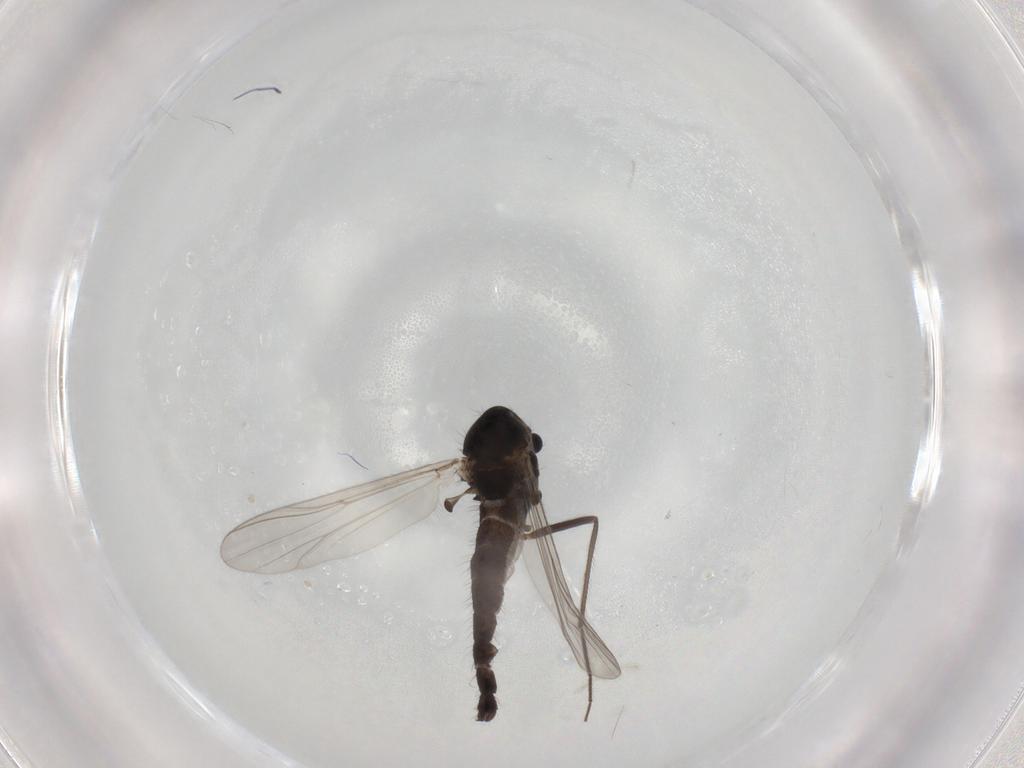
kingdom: Animalia
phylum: Arthropoda
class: Insecta
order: Diptera
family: Chironomidae
